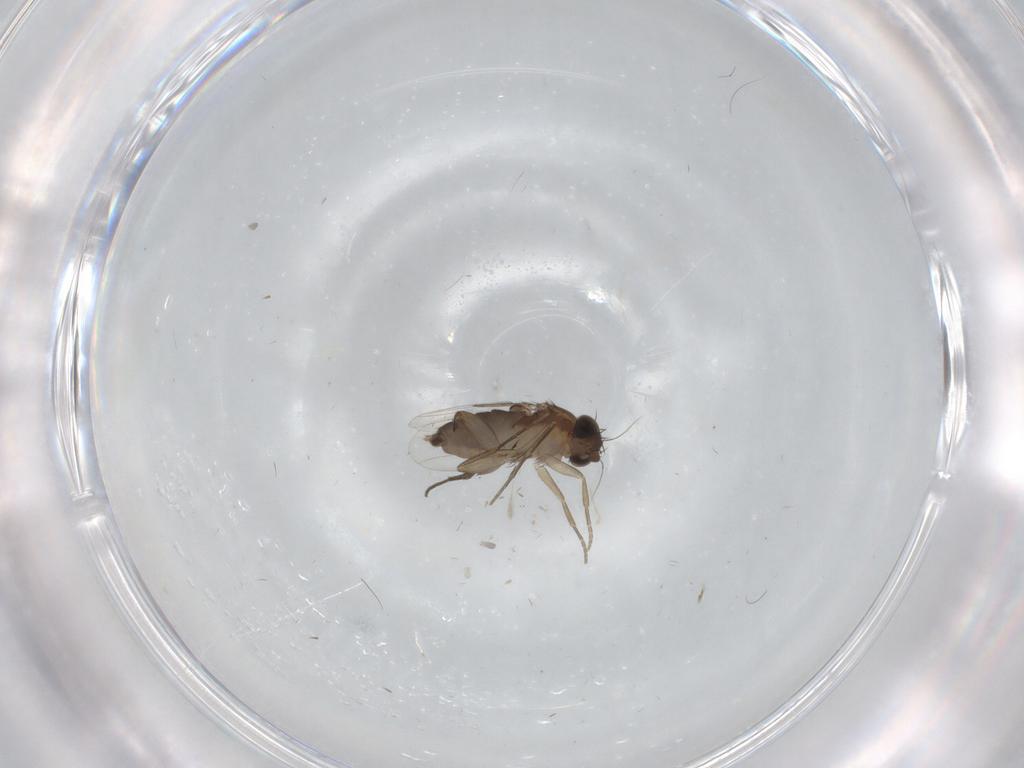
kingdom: Animalia
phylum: Arthropoda
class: Insecta
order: Diptera
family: Phoridae
